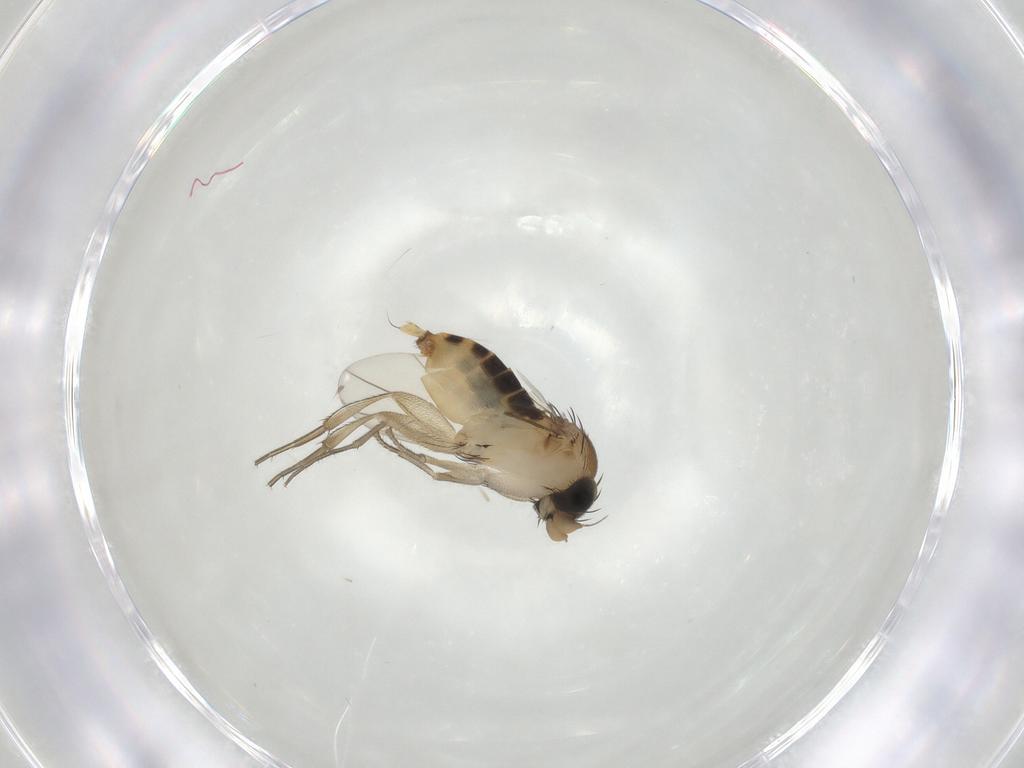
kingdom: Animalia
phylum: Arthropoda
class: Insecta
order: Diptera
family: Phoridae
